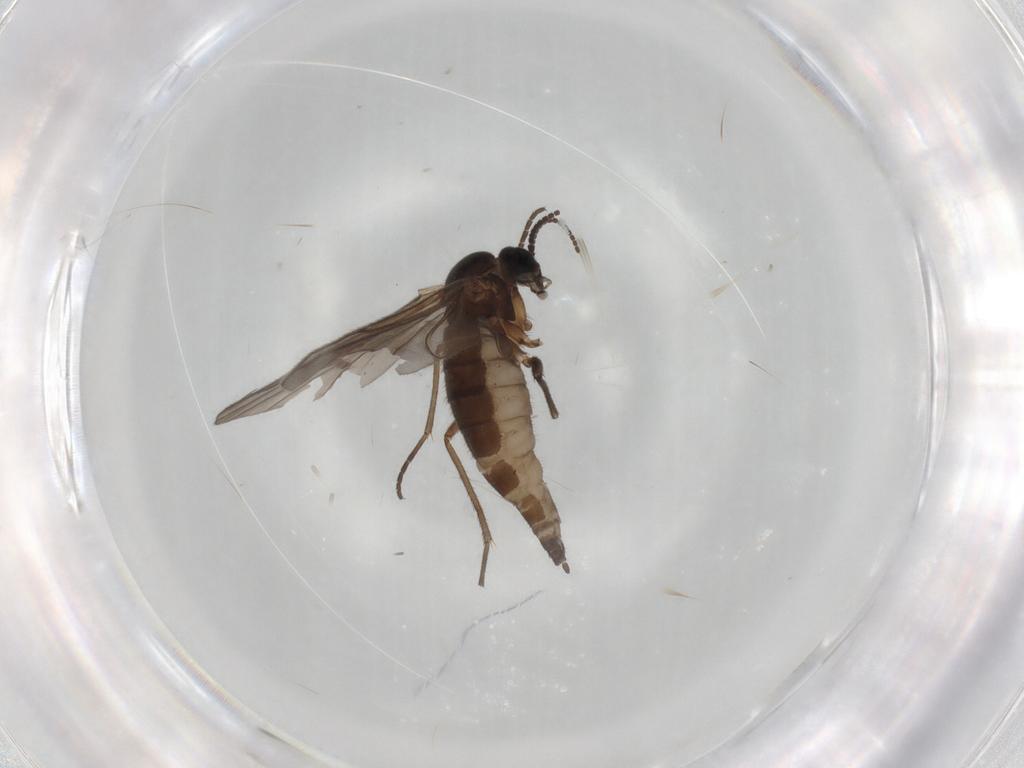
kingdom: Animalia
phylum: Arthropoda
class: Insecta
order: Diptera
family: Sciaridae
